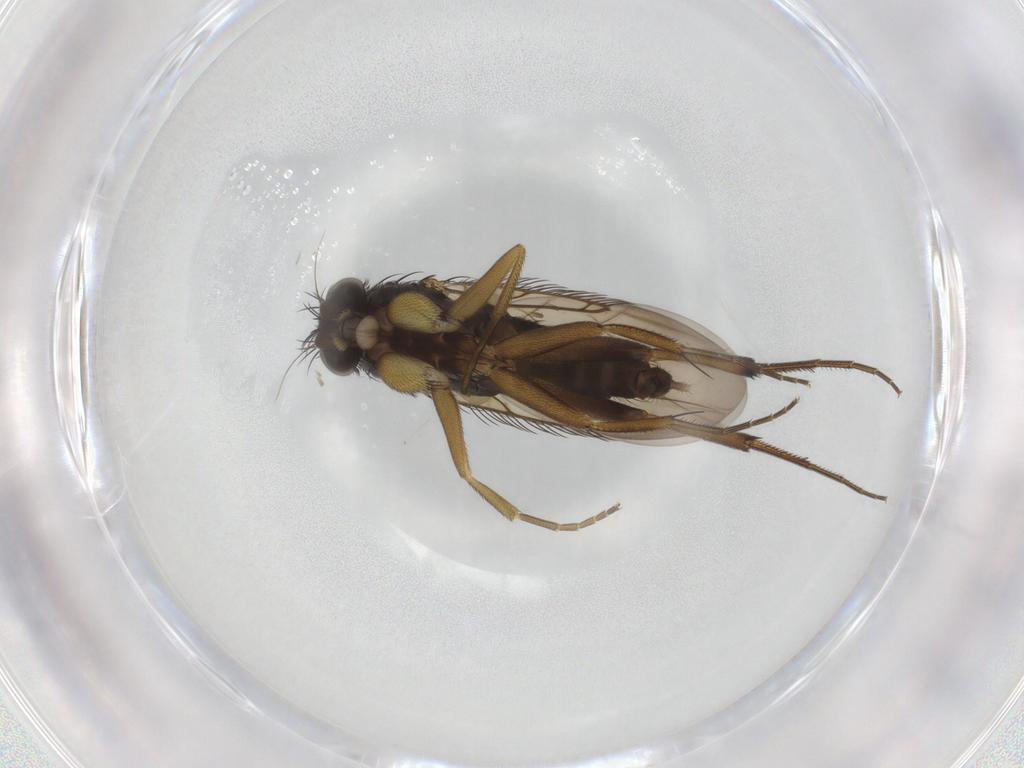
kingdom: Animalia
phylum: Arthropoda
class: Insecta
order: Diptera
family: Phoridae
